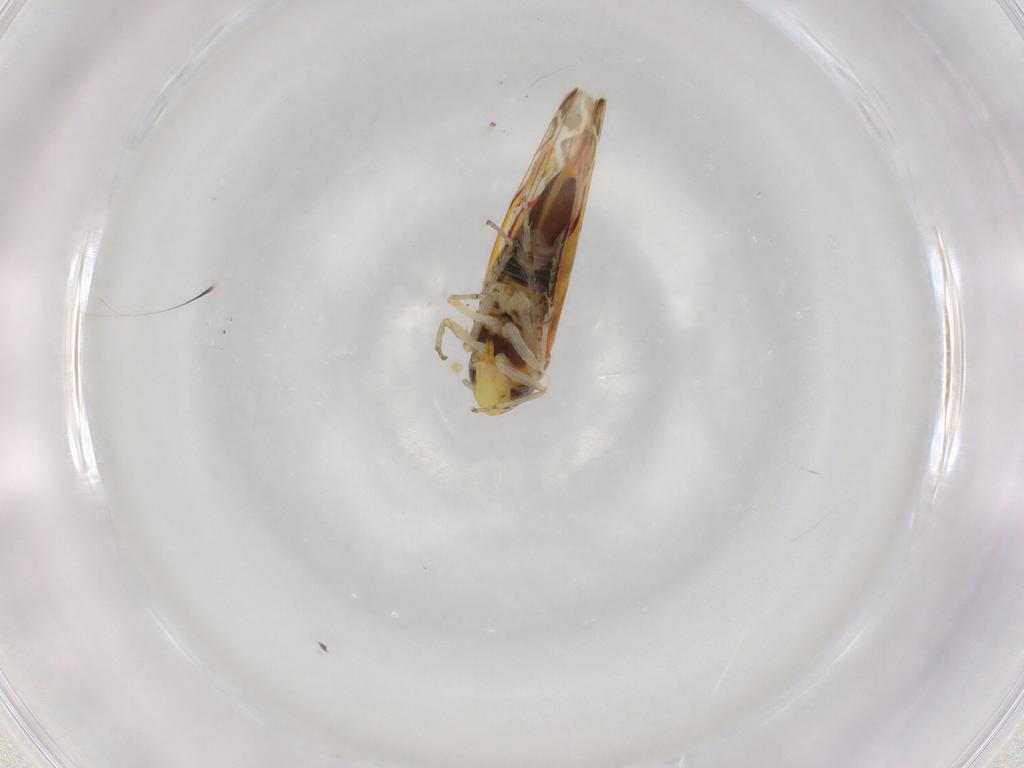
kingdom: Animalia
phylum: Arthropoda
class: Insecta
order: Hemiptera
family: Cicadellidae
